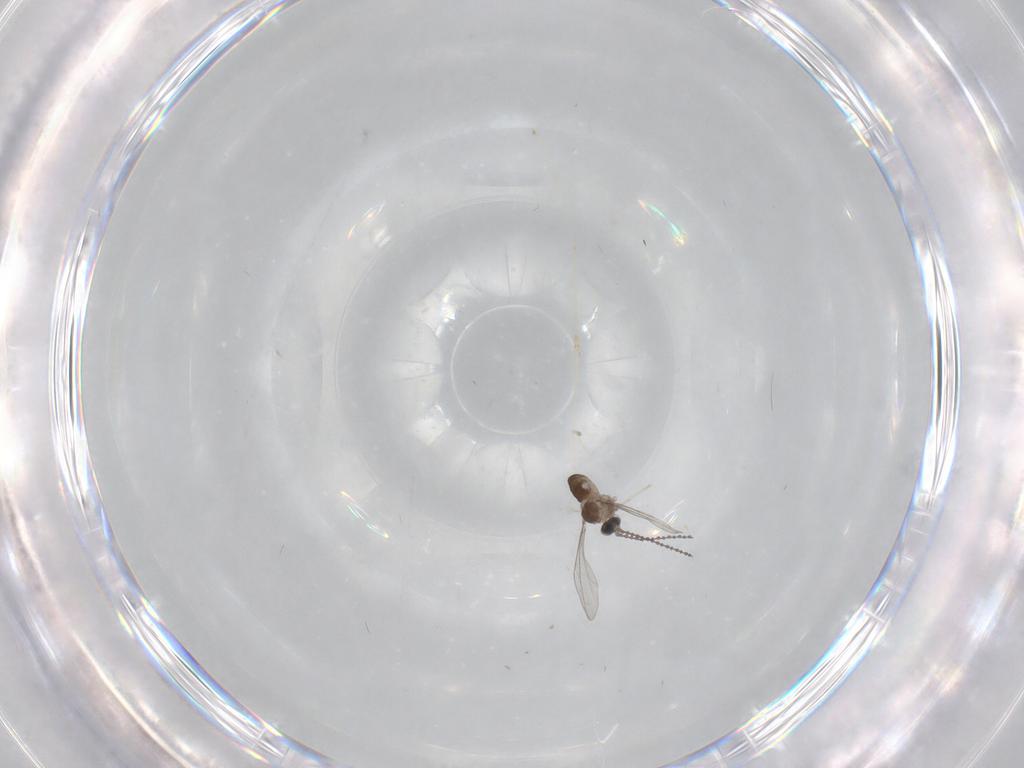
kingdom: Animalia
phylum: Arthropoda
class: Insecta
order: Diptera
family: Cecidomyiidae
